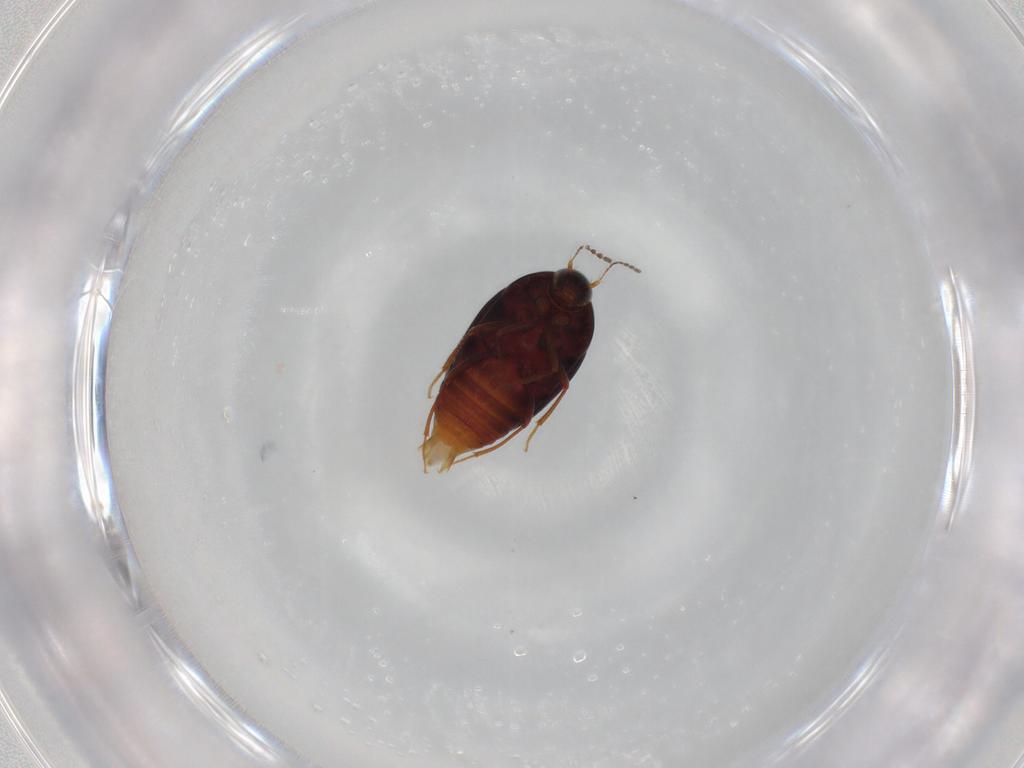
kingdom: Animalia
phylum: Arthropoda
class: Insecta
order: Coleoptera
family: Staphylinidae
